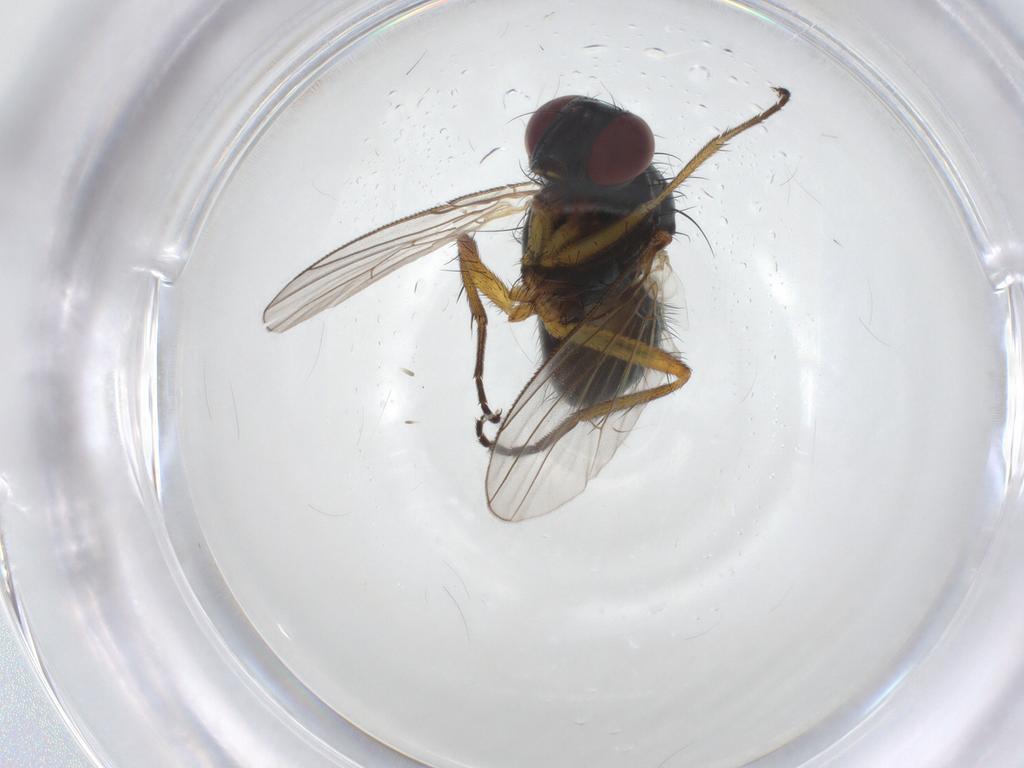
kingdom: Animalia
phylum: Arthropoda
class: Insecta
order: Diptera
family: Muscidae
